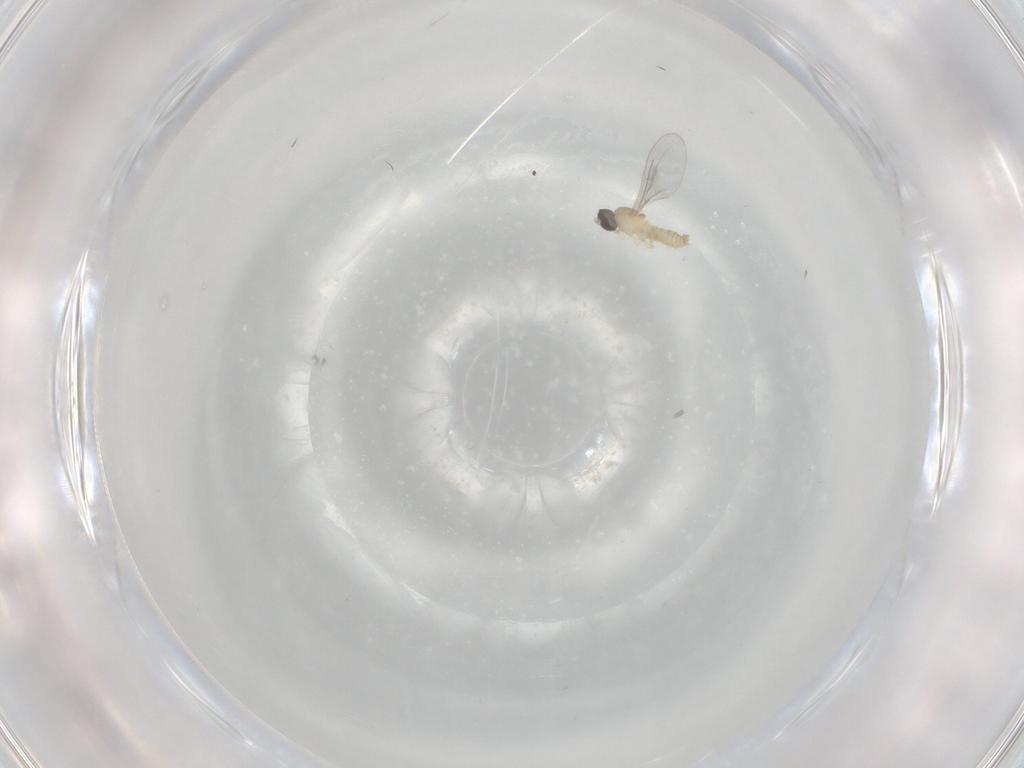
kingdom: Animalia
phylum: Arthropoda
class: Insecta
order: Diptera
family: Cecidomyiidae
